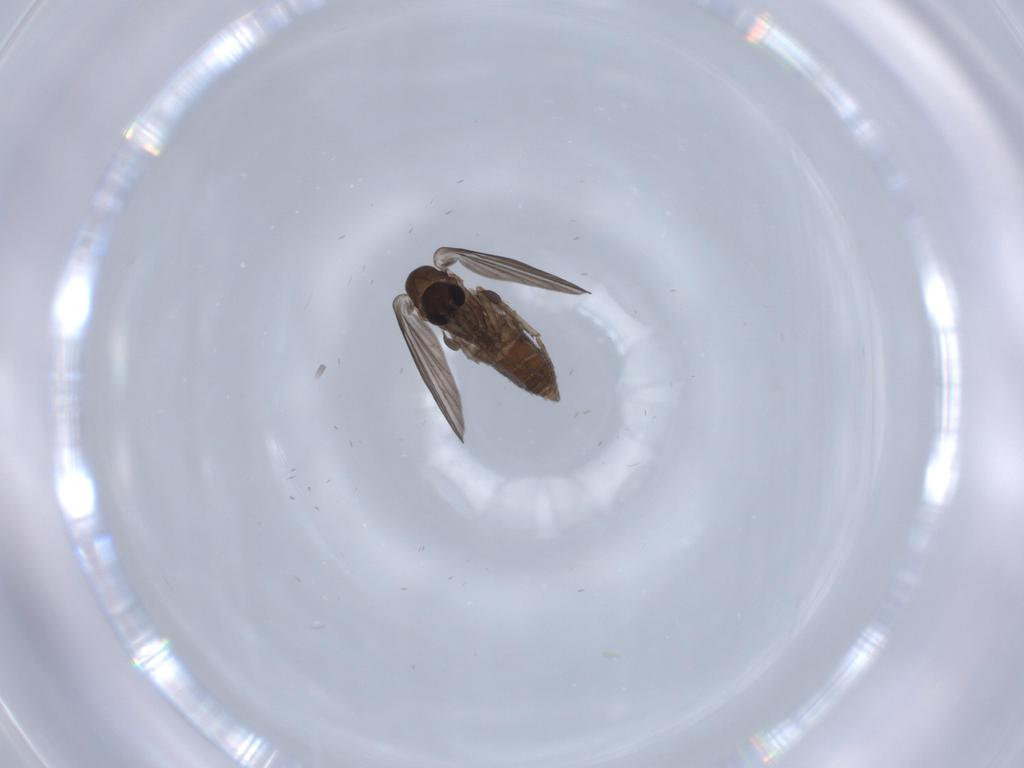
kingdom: Animalia
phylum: Arthropoda
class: Insecta
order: Diptera
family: Psychodidae
